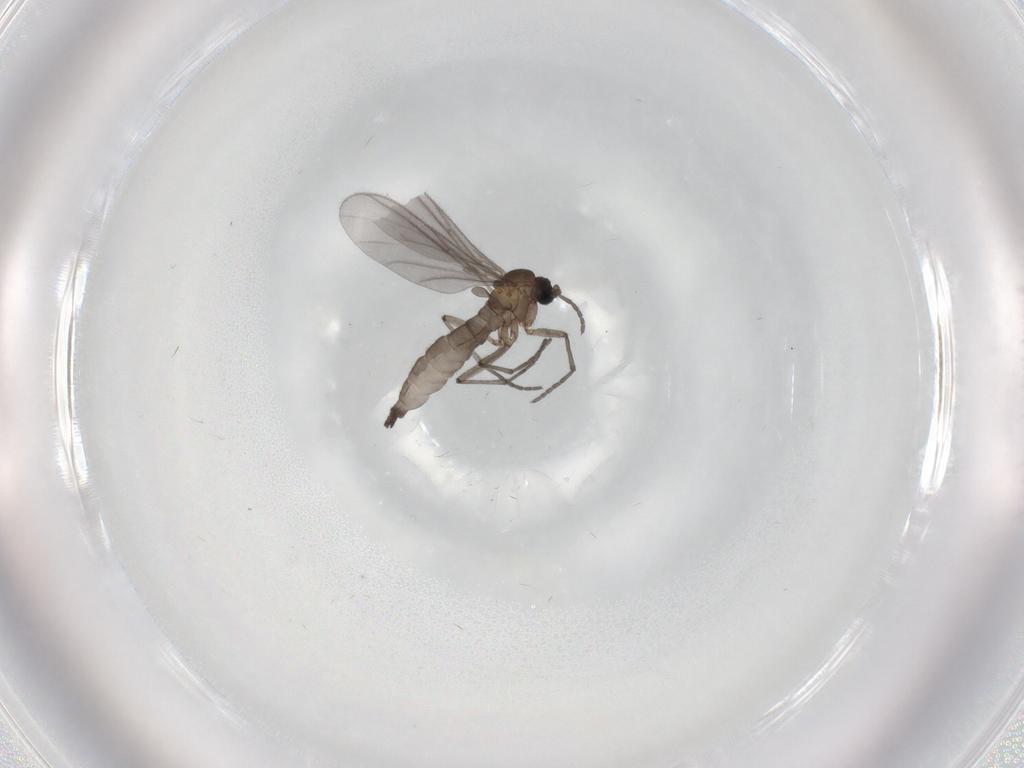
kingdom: Animalia
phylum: Arthropoda
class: Insecta
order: Diptera
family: Sciaridae
